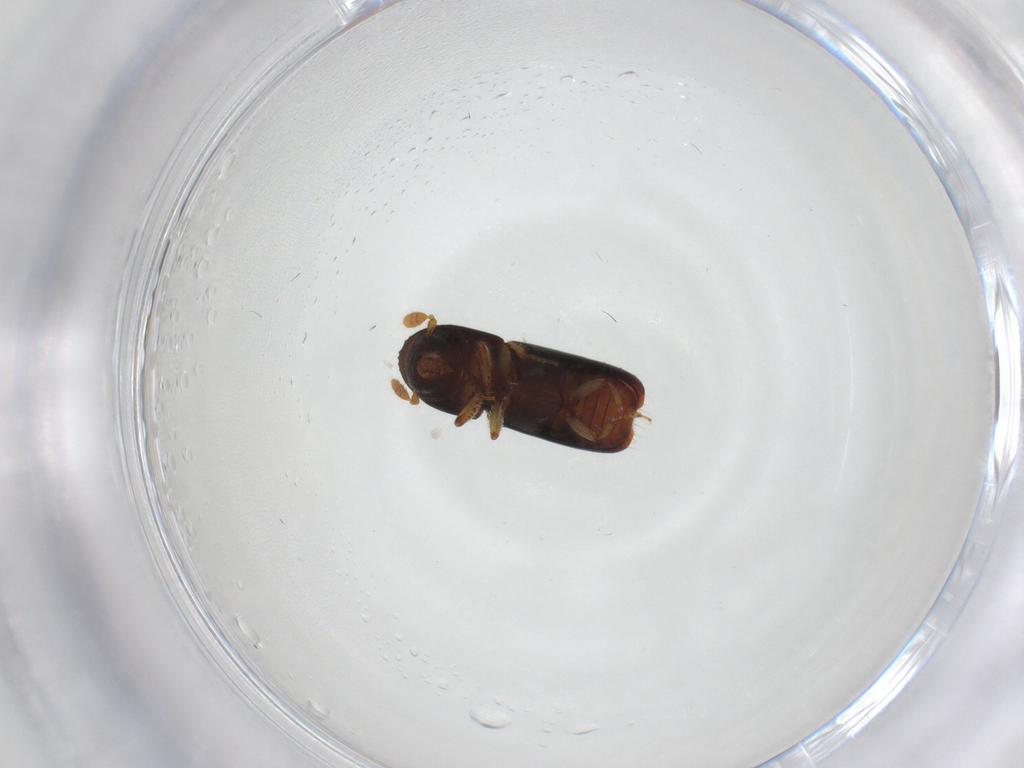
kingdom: Animalia
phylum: Arthropoda
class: Insecta
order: Coleoptera
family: Curculionidae
